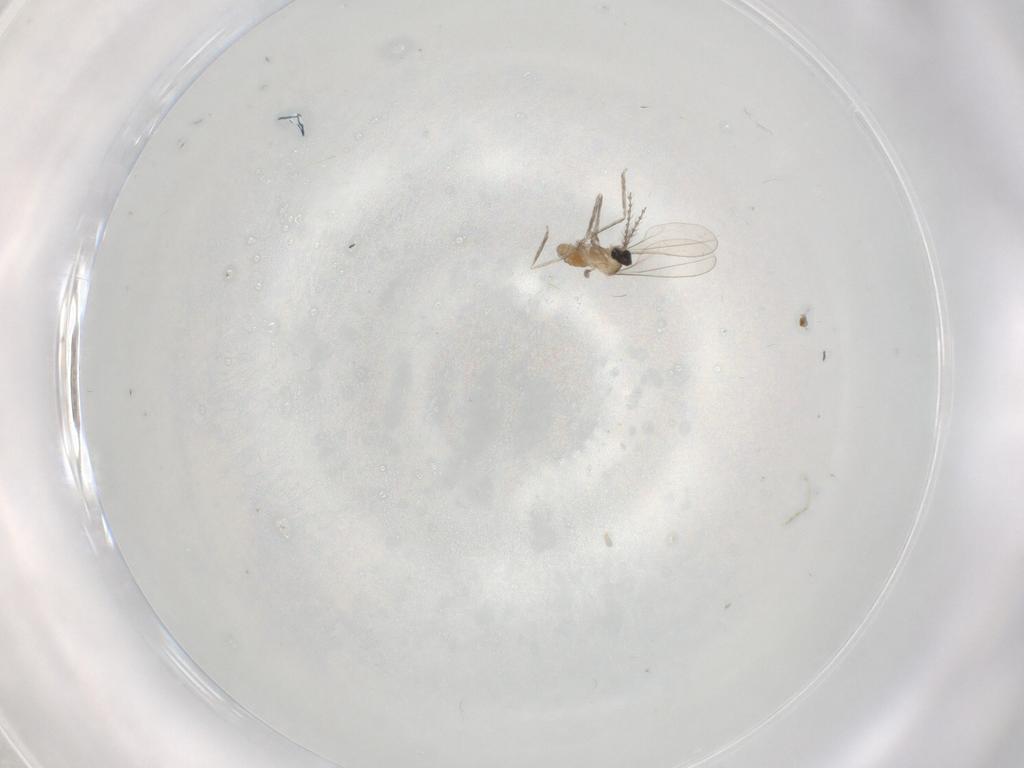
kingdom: Animalia
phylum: Arthropoda
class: Insecta
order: Diptera
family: Cecidomyiidae
